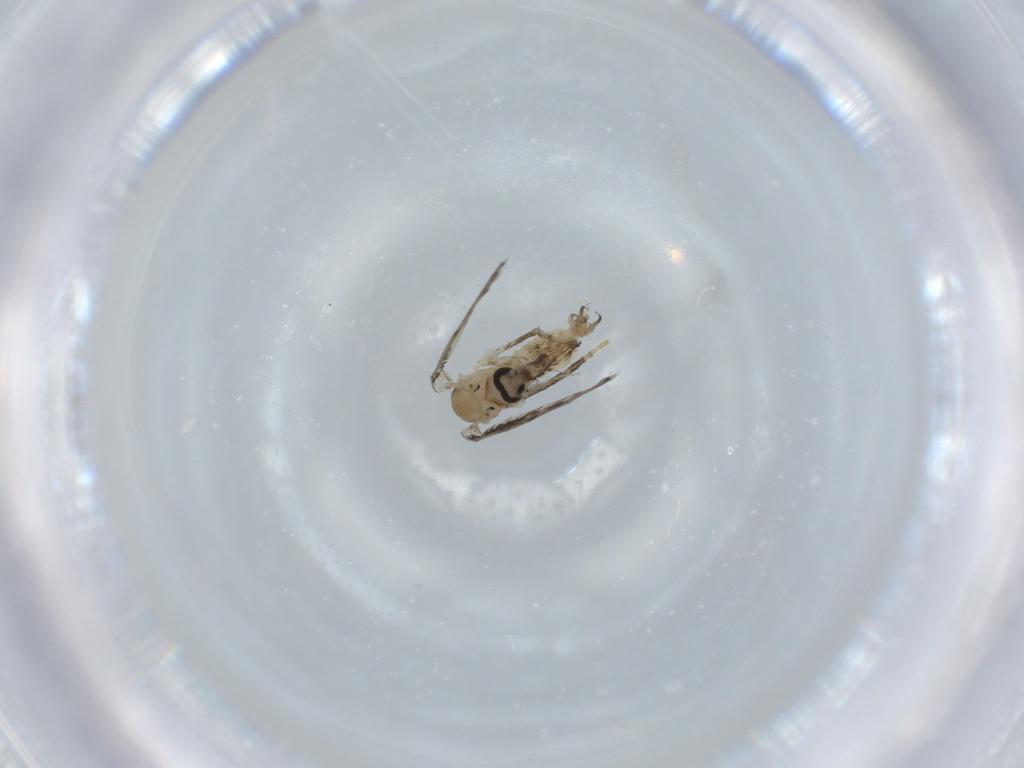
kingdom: Animalia
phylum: Arthropoda
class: Insecta
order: Diptera
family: Psychodidae
